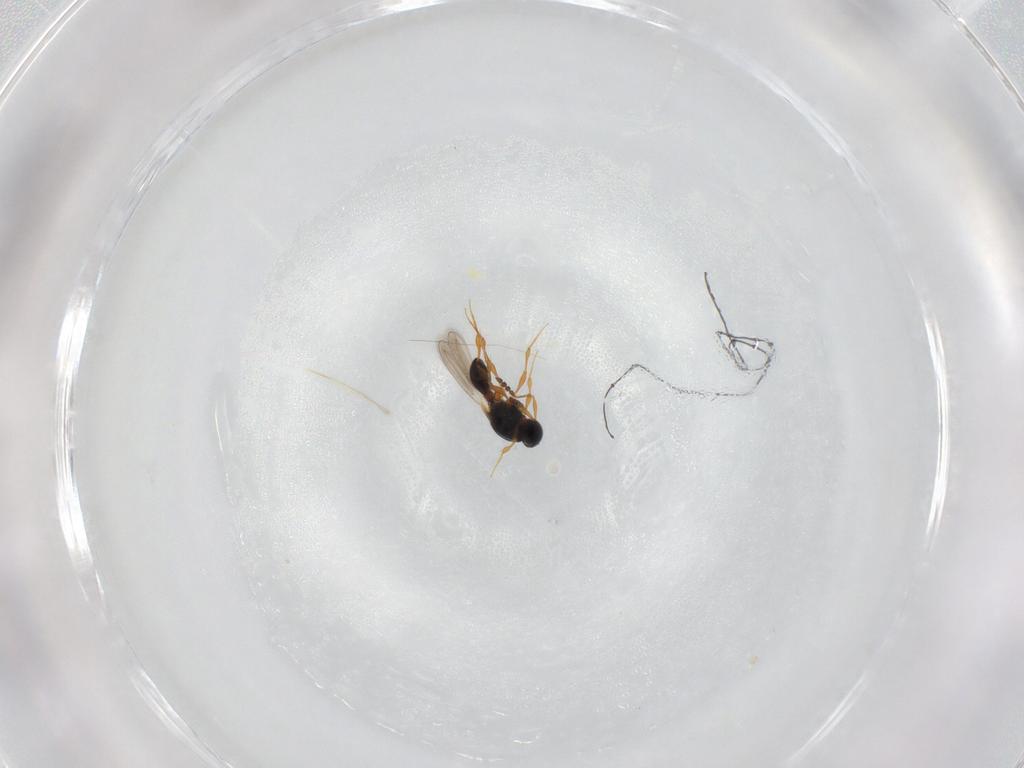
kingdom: Animalia
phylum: Arthropoda
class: Insecta
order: Hymenoptera
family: Platygastridae
